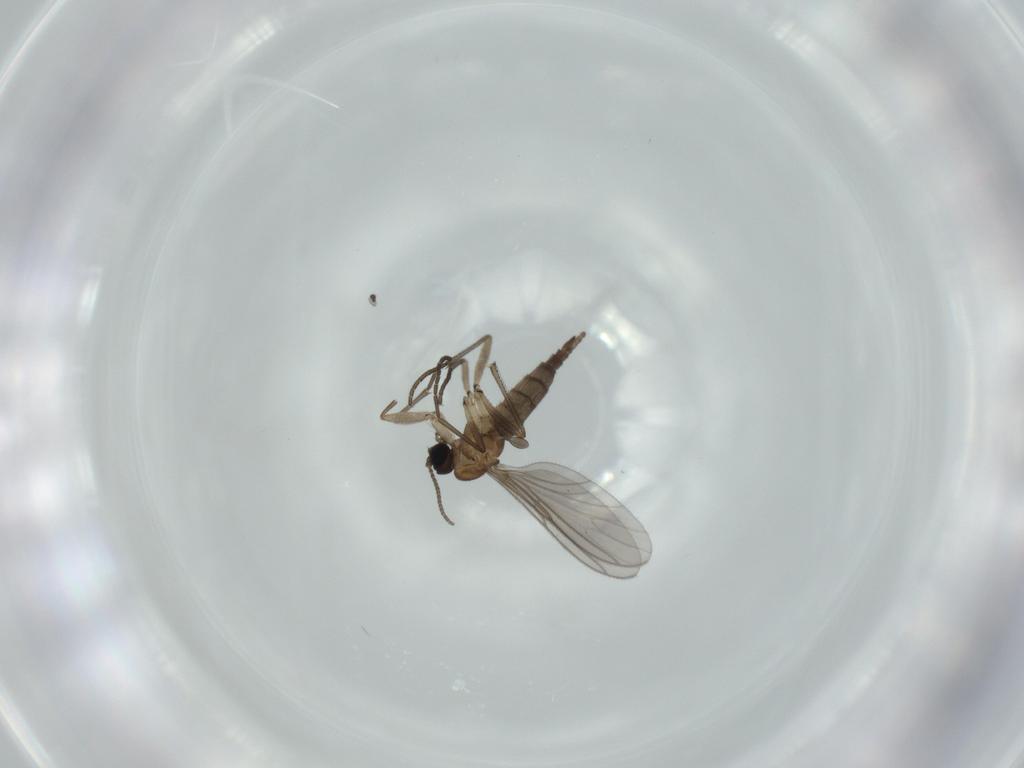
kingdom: Animalia
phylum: Arthropoda
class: Insecta
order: Diptera
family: Chironomidae
